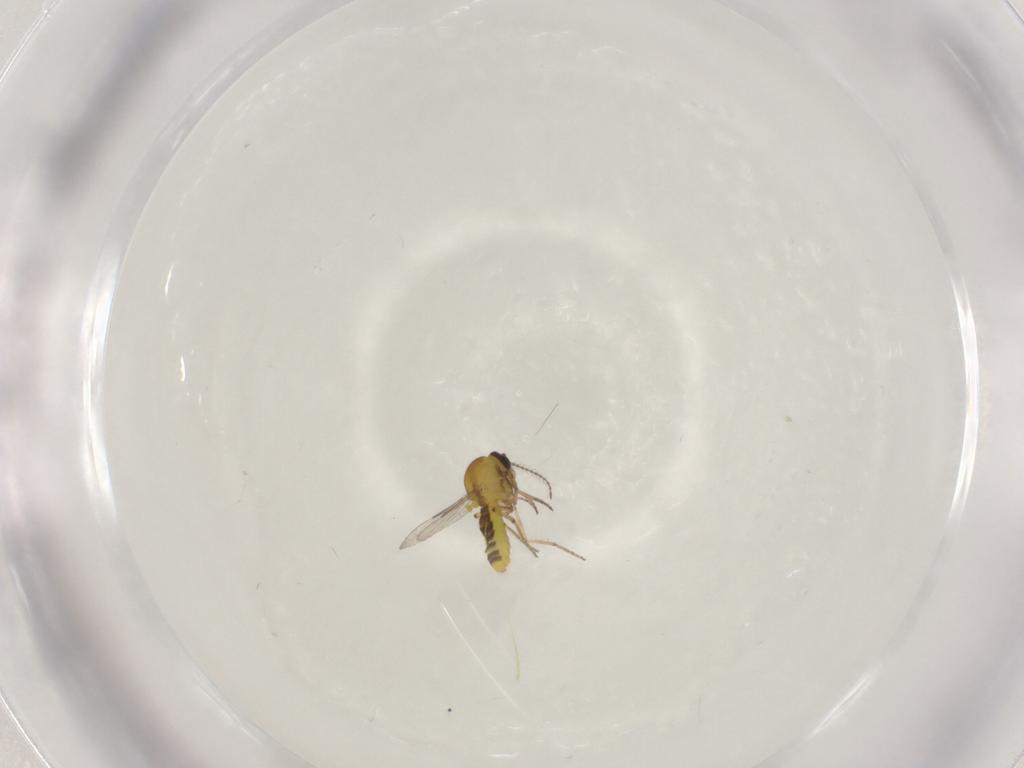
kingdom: Animalia
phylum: Arthropoda
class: Insecta
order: Diptera
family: Ceratopogonidae
